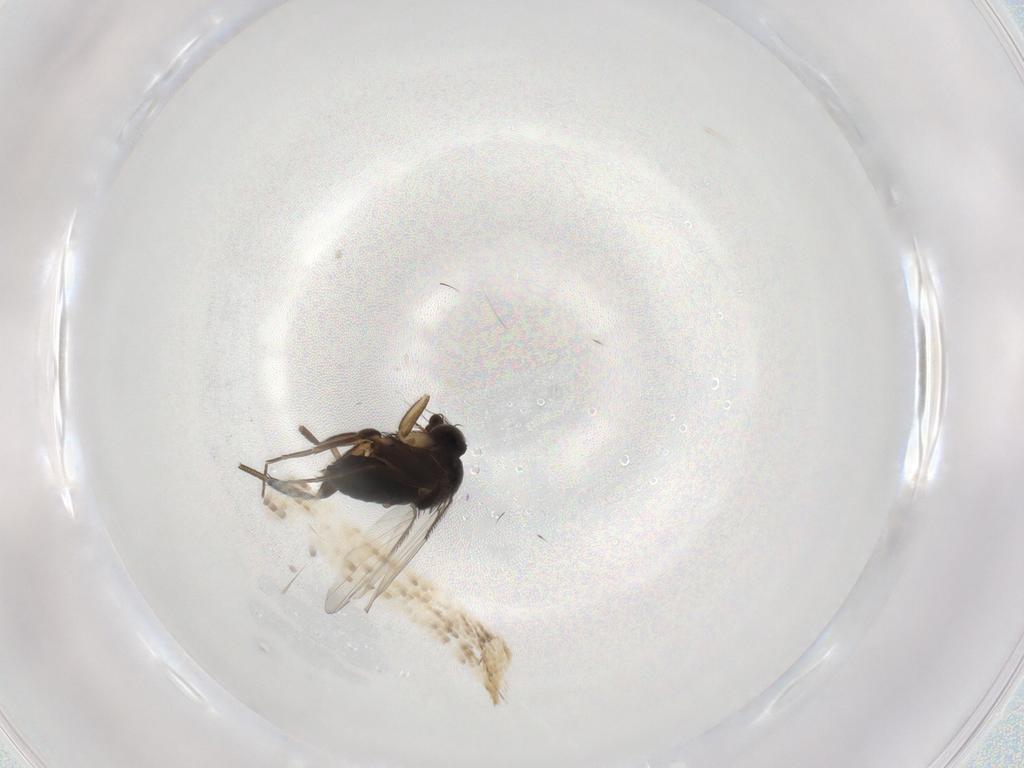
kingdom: Animalia
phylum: Arthropoda
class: Insecta
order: Diptera
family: Phoridae
